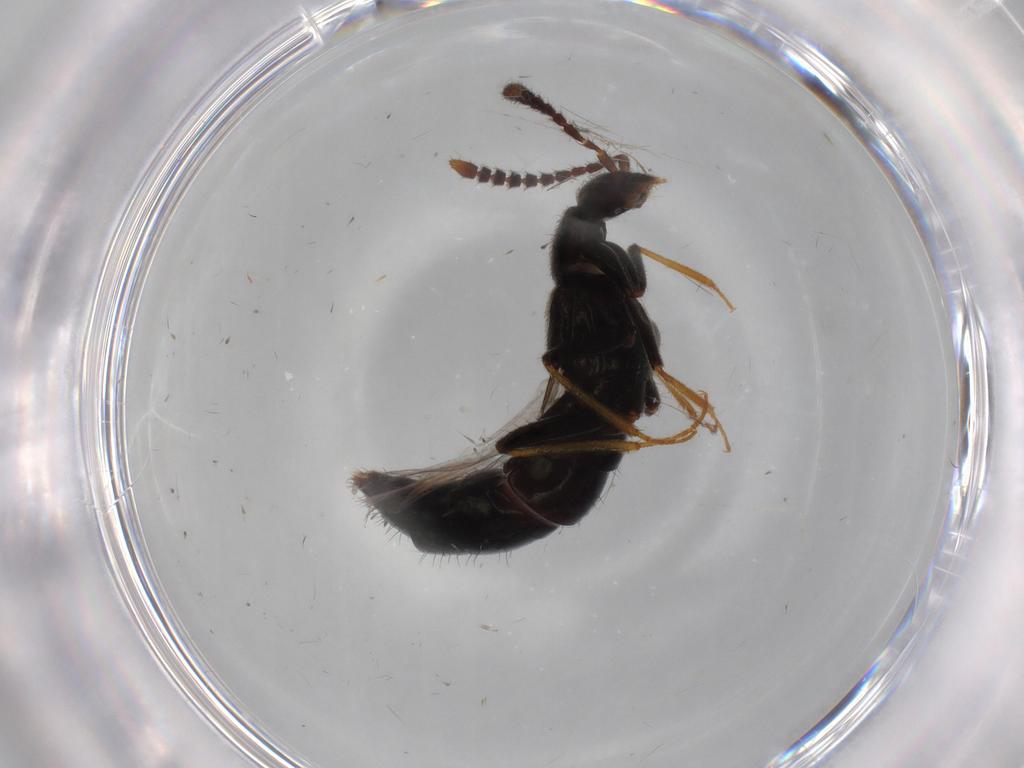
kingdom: Animalia
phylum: Arthropoda
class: Insecta
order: Coleoptera
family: Staphylinidae
